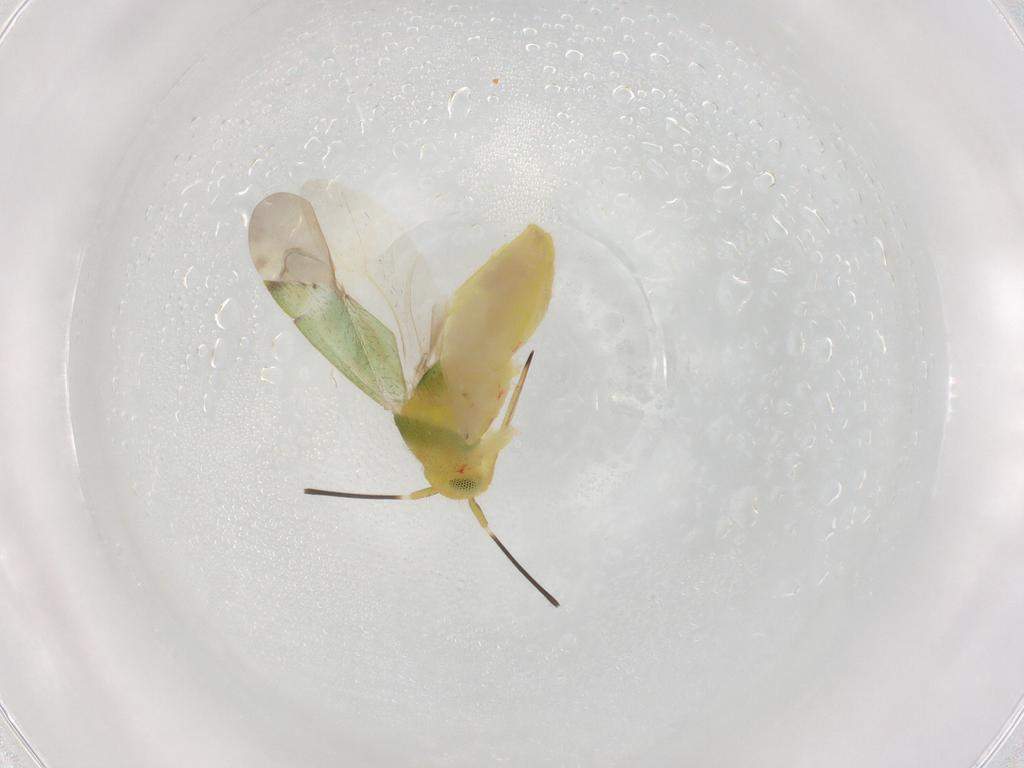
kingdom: Animalia
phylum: Arthropoda
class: Insecta
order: Hemiptera
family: Miridae
